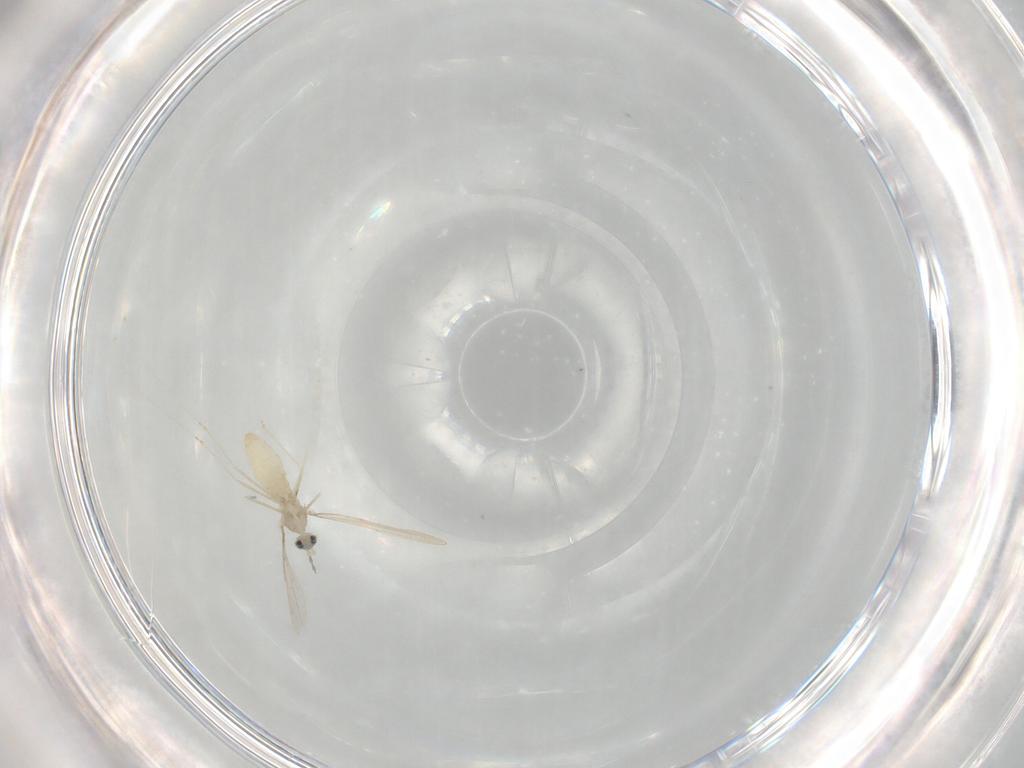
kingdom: Animalia
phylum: Arthropoda
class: Insecta
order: Diptera
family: Cecidomyiidae
